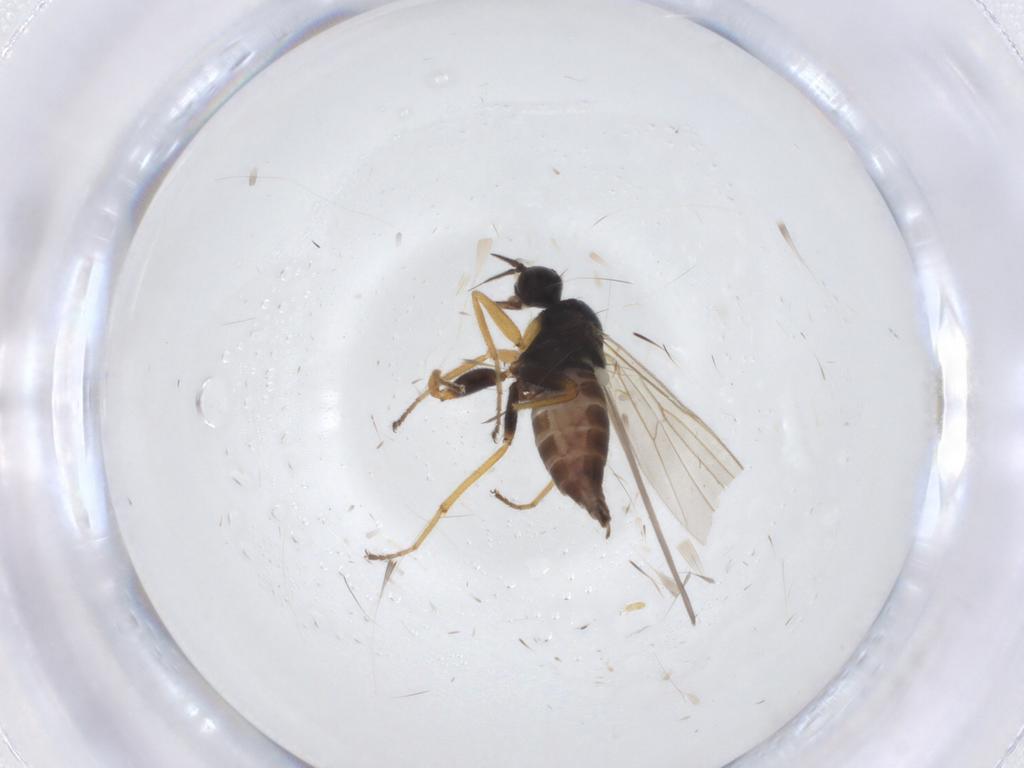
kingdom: Animalia
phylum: Arthropoda
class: Insecta
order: Diptera
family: Hybotidae
